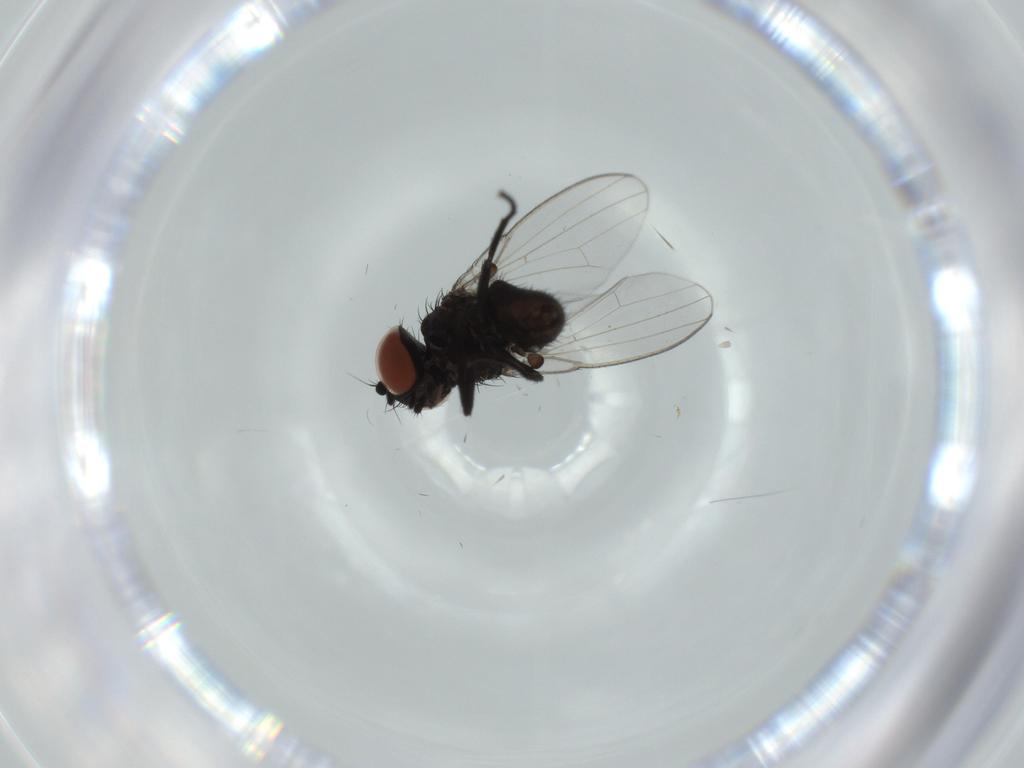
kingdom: Animalia
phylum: Arthropoda
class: Insecta
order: Diptera
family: Milichiidae
